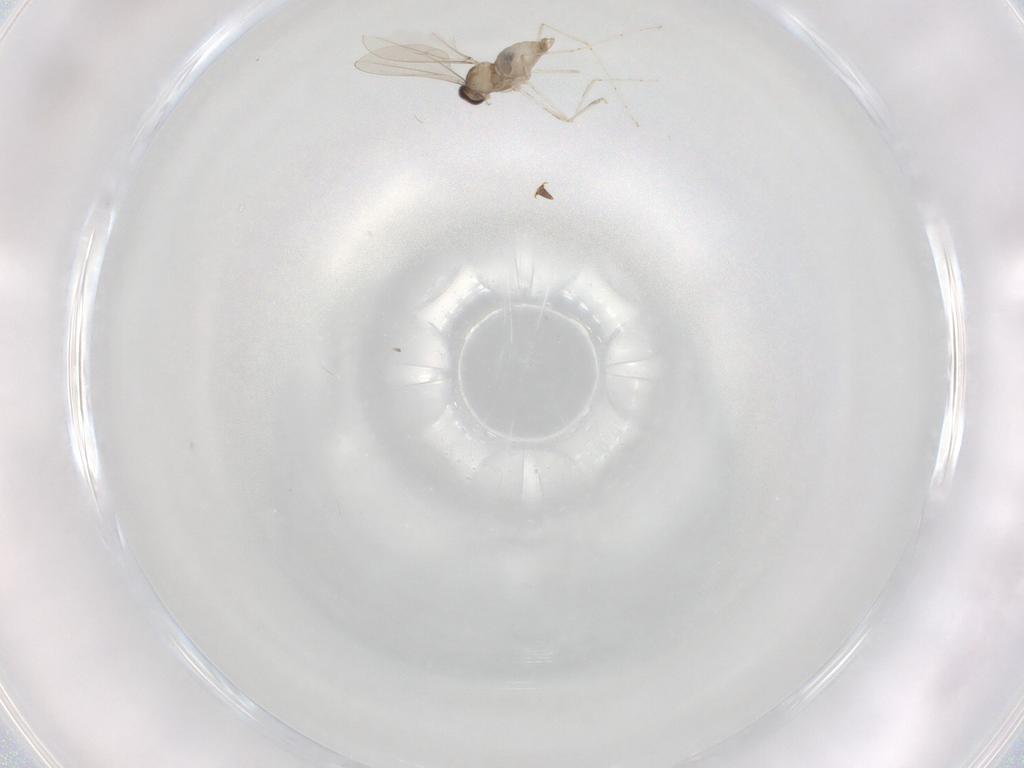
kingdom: Animalia
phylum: Arthropoda
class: Insecta
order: Diptera
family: Cecidomyiidae
